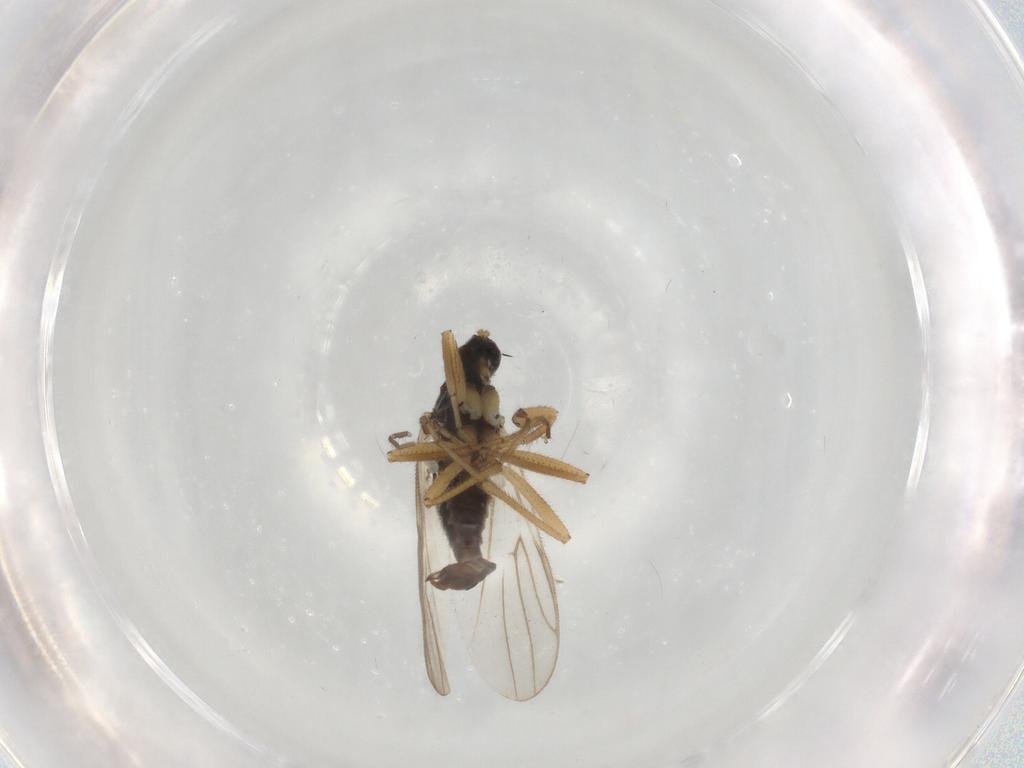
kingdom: Animalia
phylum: Arthropoda
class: Insecta
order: Diptera
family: Hybotidae
